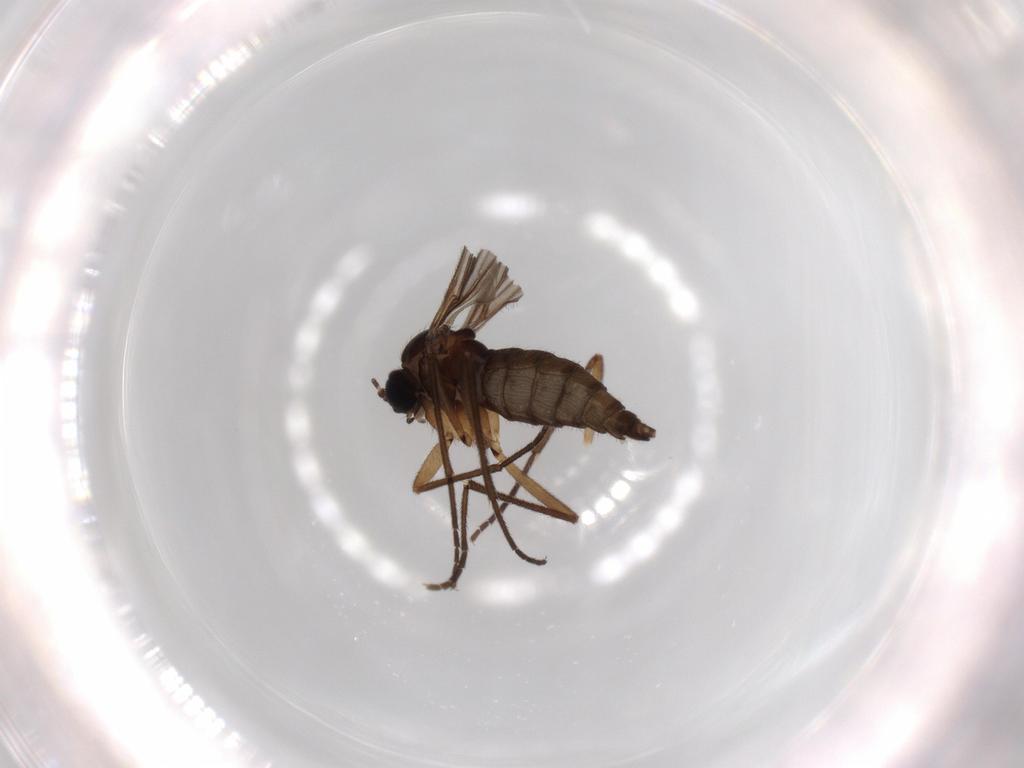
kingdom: Animalia
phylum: Arthropoda
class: Insecta
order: Diptera
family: Sciaridae
